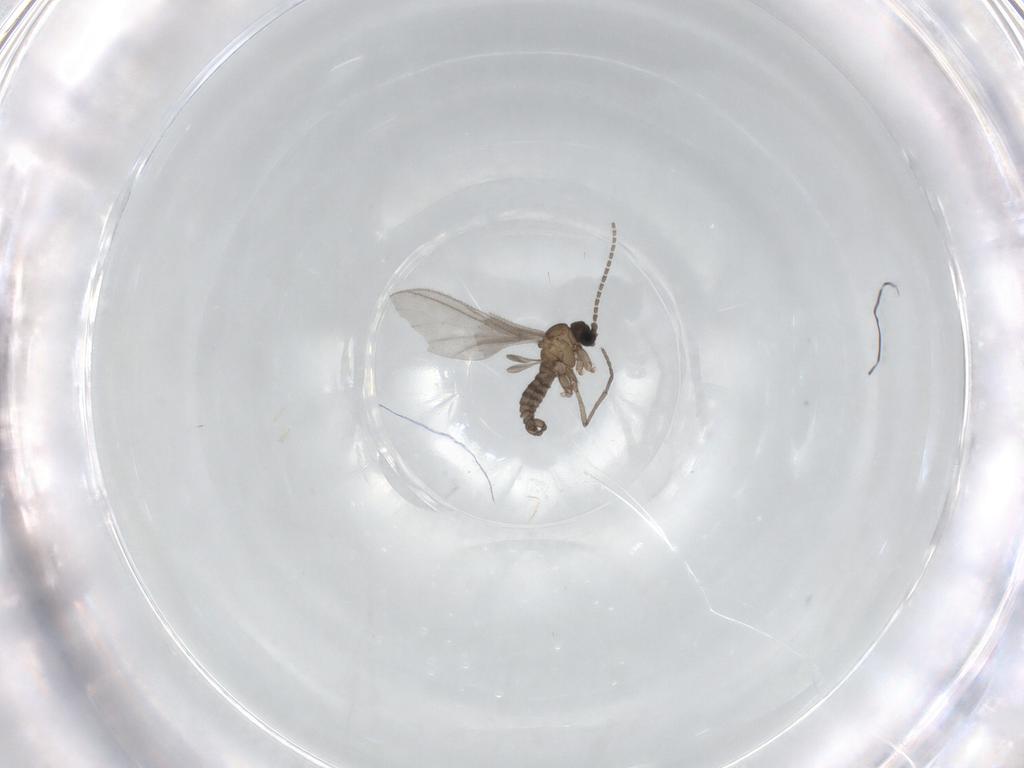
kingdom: Animalia
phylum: Arthropoda
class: Insecta
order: Diptera
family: Sciaridae
